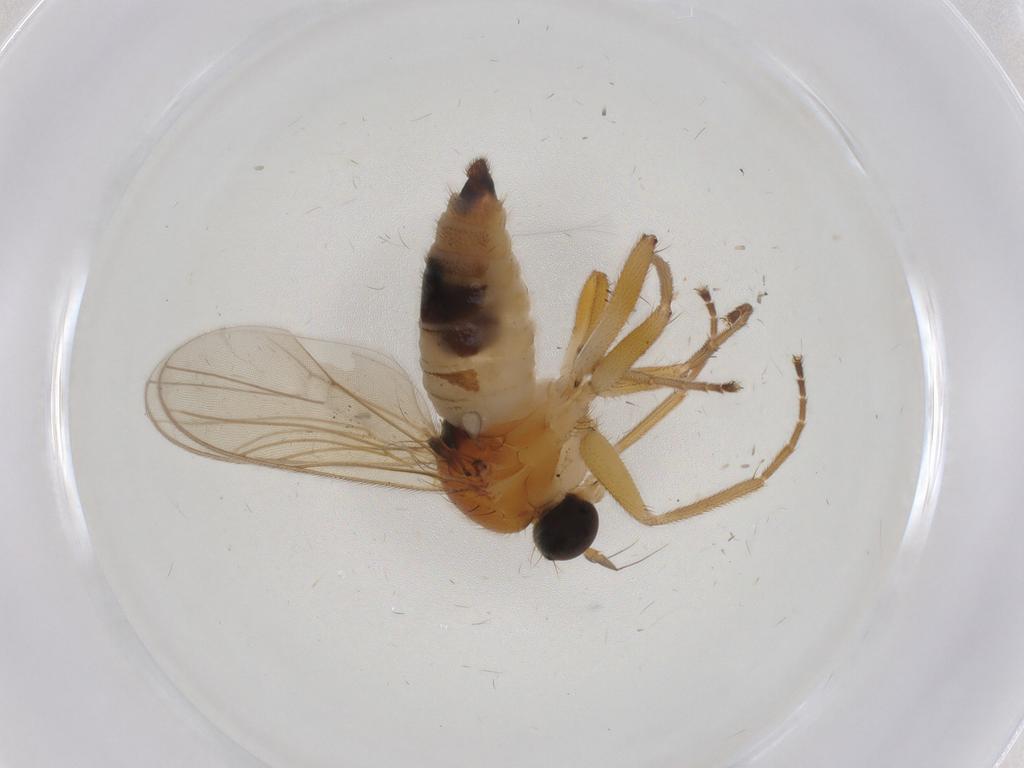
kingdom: Animalia
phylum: Arthropoda
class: Insecta
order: Diptera
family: Hybotidae
